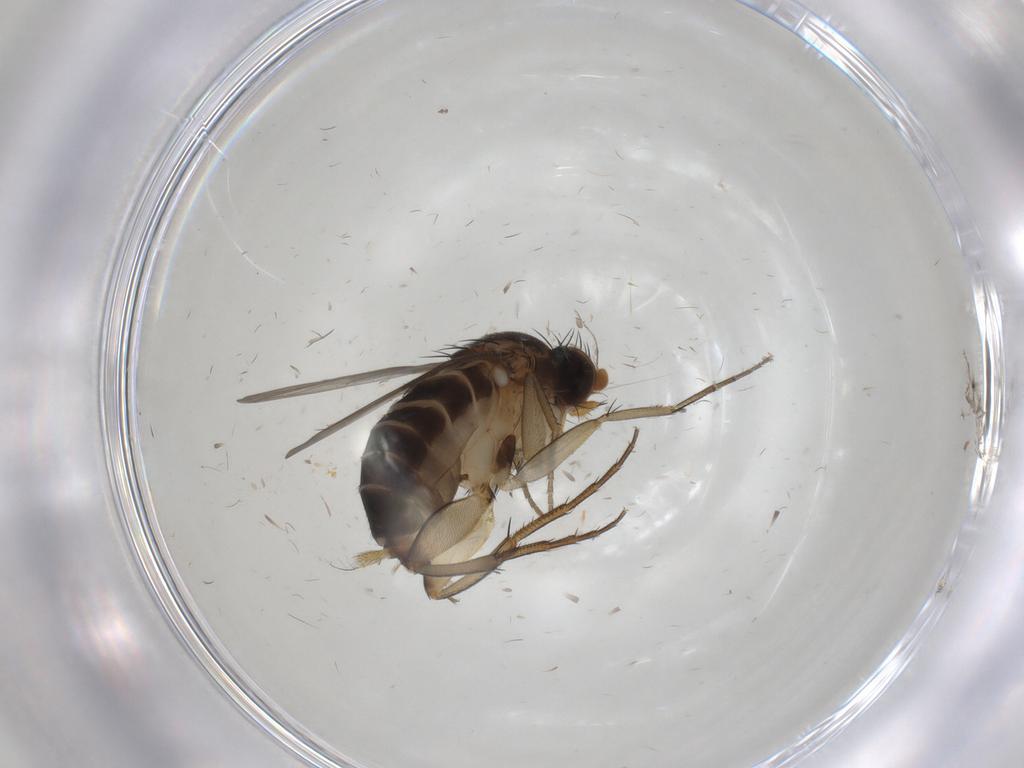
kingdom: Animalia
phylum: Arthropoda
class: Insecta
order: Diptera
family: Phoridae
